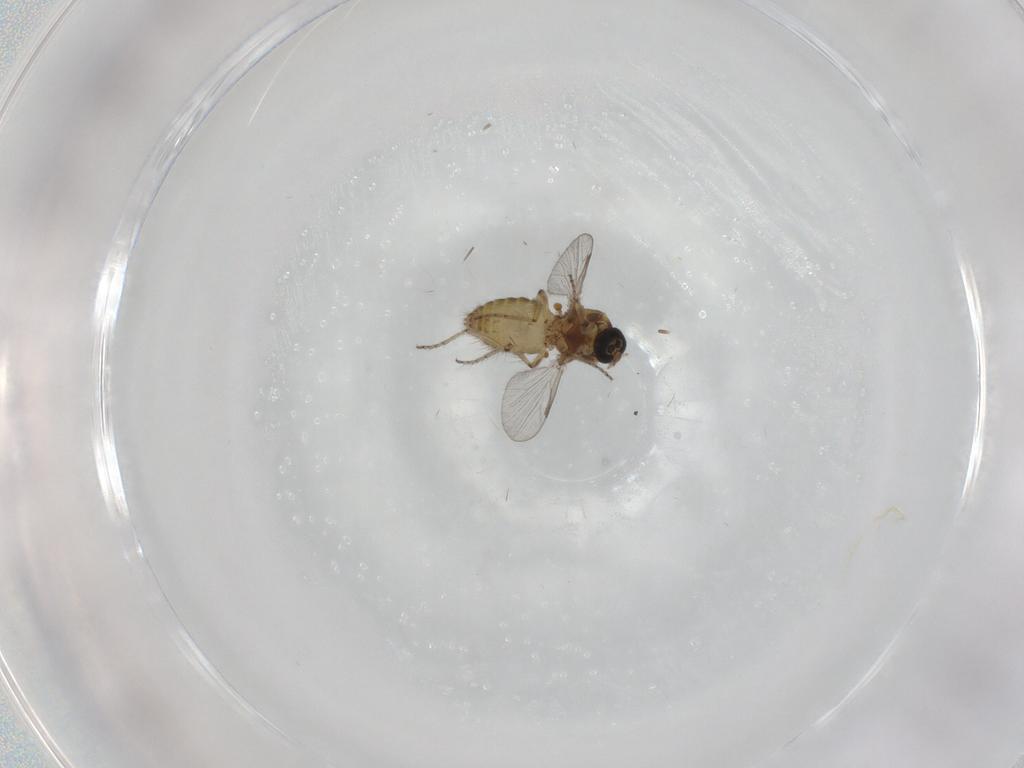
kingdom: Animalia
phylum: Arthropoda
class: Insecta
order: Diptera
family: Ceratopogonidae
